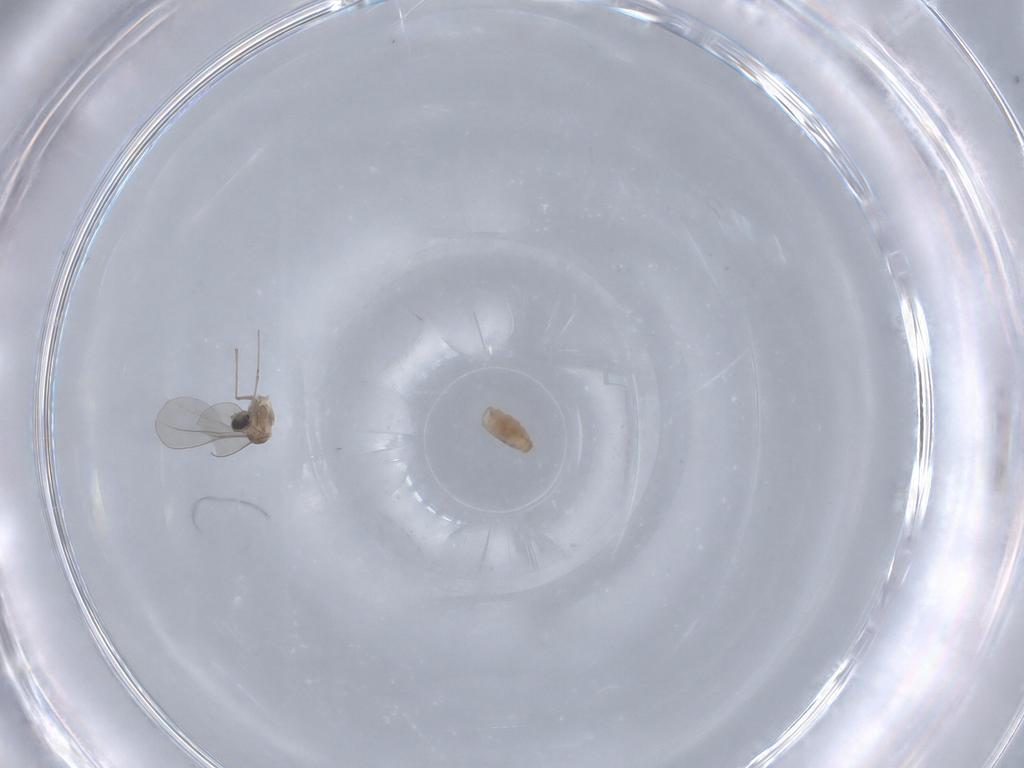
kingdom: Animalia
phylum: Arthropoda
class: Insecta
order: Diptera
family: Cecidomyiidae
